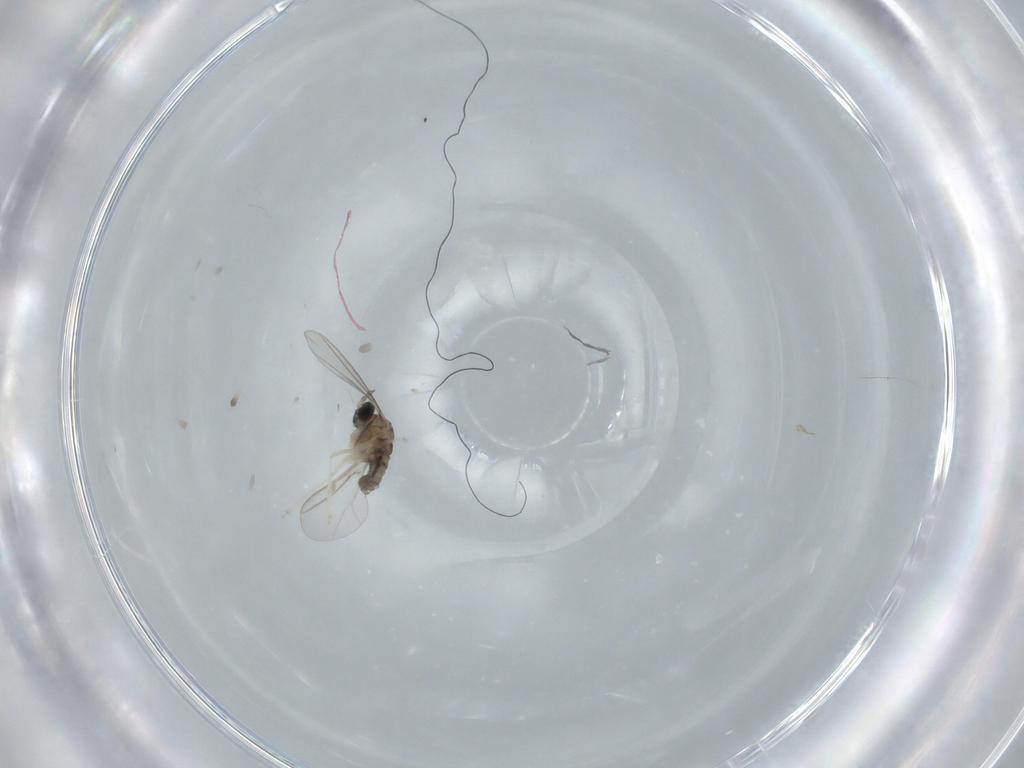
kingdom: Animalia
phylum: Arthropoda
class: Insecta
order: Diptera
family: Cecidomyiidae
